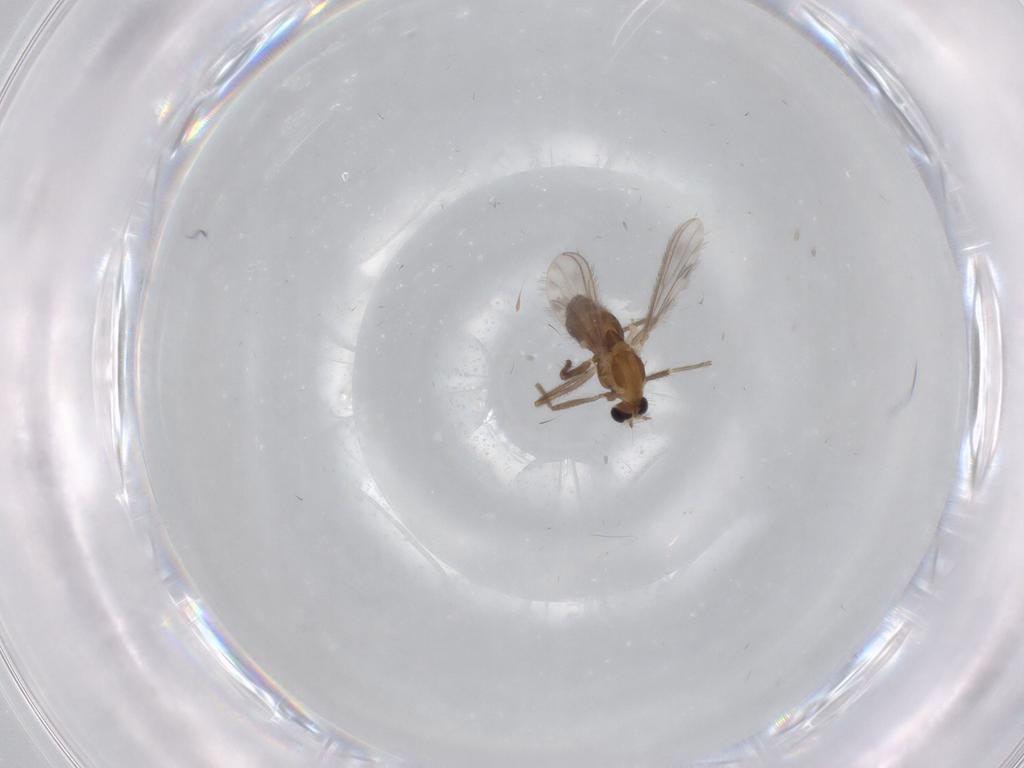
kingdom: Animalia
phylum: Arthropoda
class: Insecta
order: Diptera
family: Chironomidae
